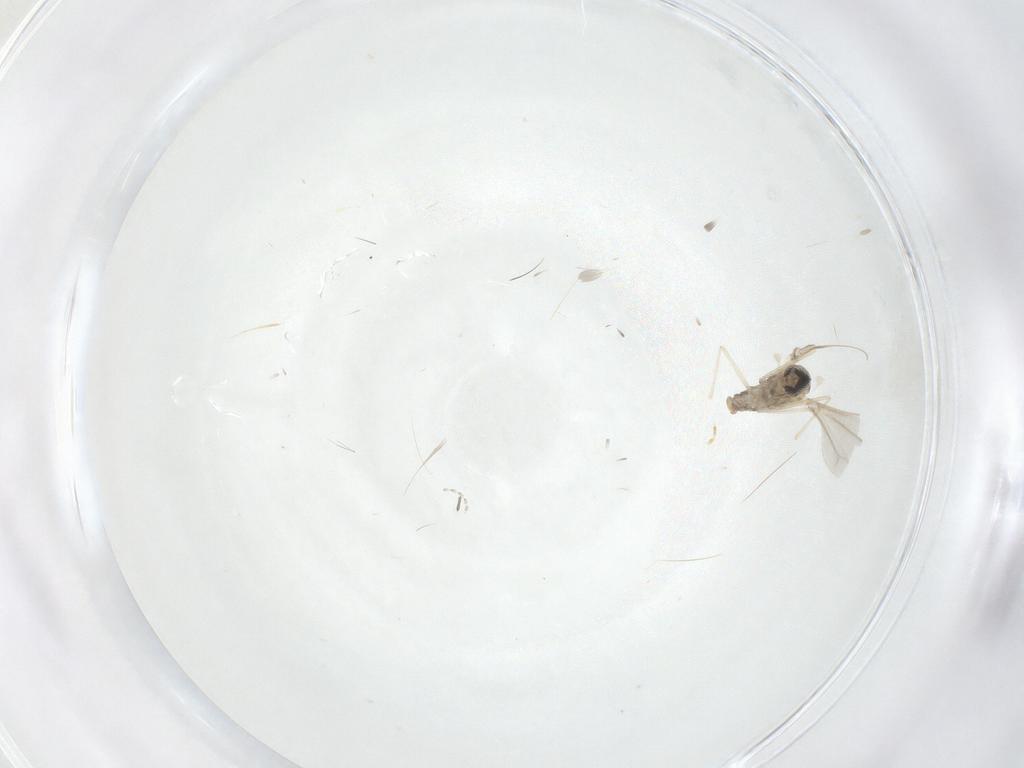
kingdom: Animalia
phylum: Arthropoda
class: Insecta
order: Diptera
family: Cecidomyiidae
